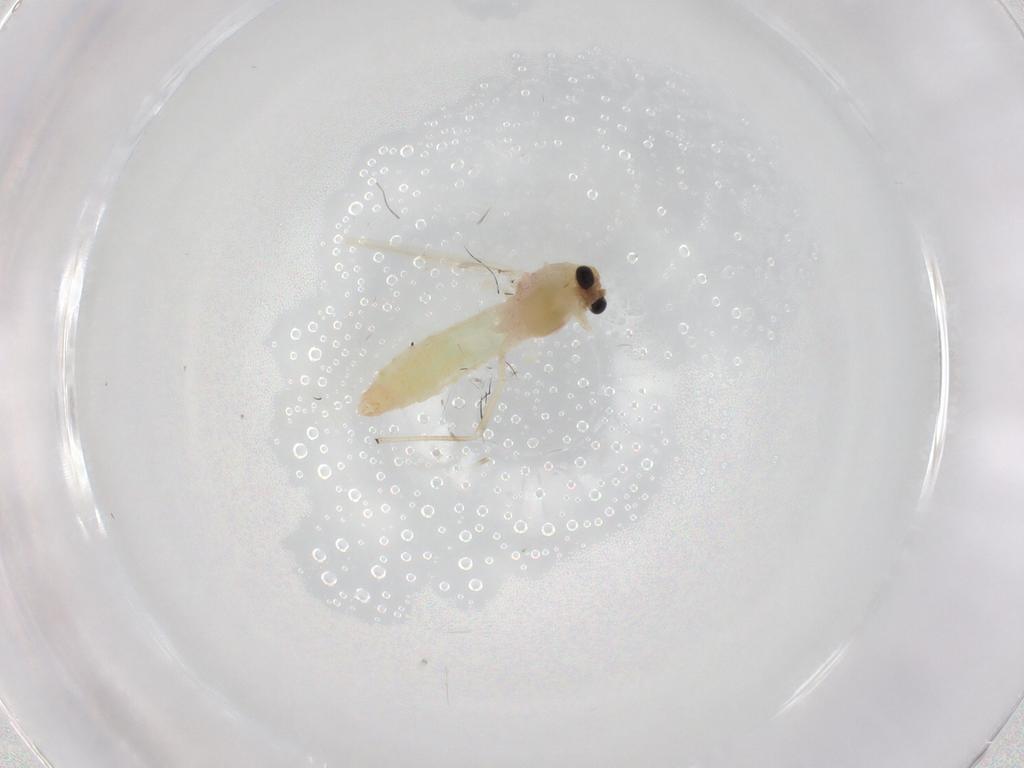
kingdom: Animalia
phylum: Arthropoda
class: Insecta
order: Diptera
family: Chironomidae
